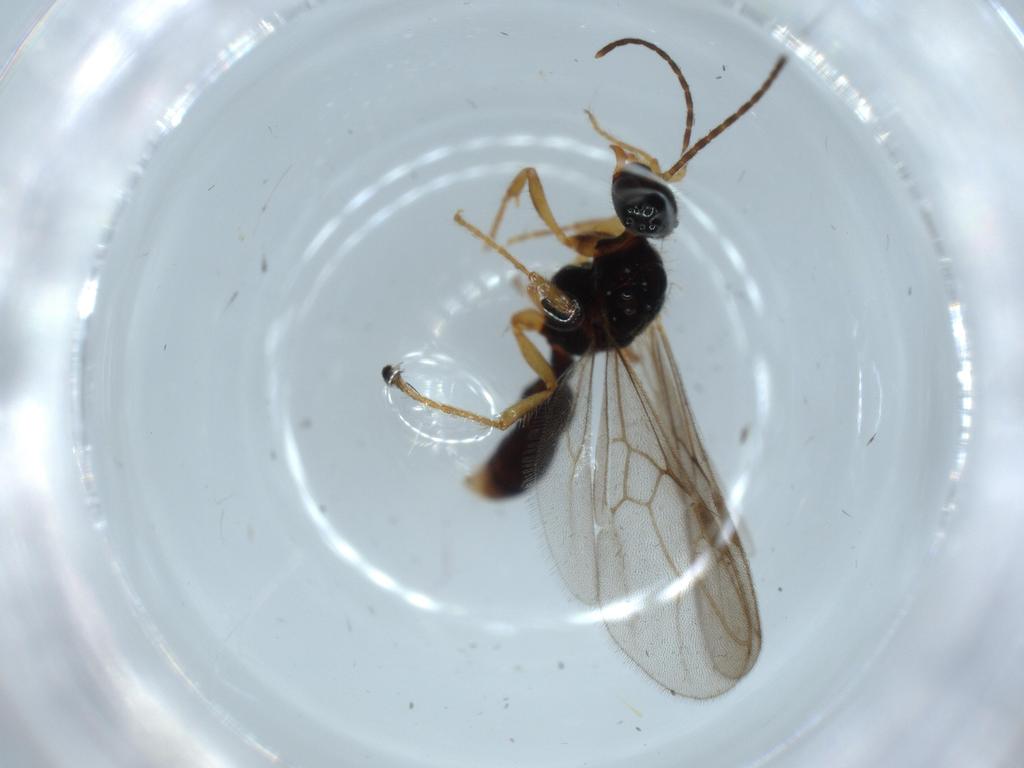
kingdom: Animalia
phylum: Arthropoda
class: Insecta
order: Hymenoptera
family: Formicidae
